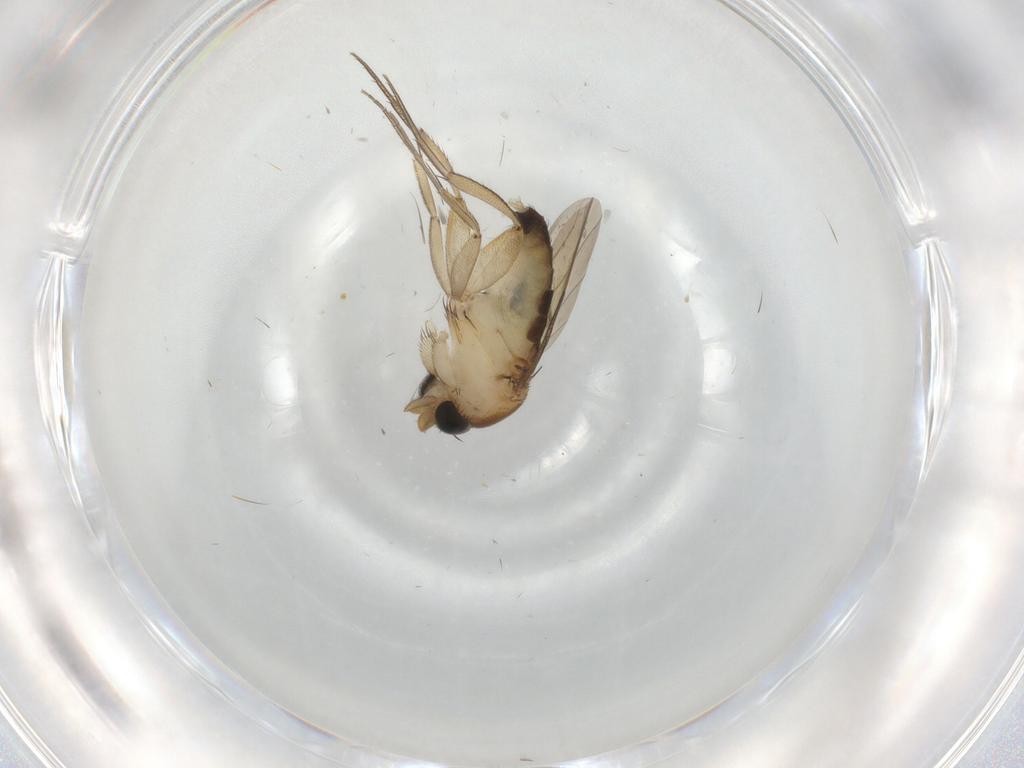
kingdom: Animalia
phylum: Arthropoda
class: Insecta
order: Diptera
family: Phoridae
